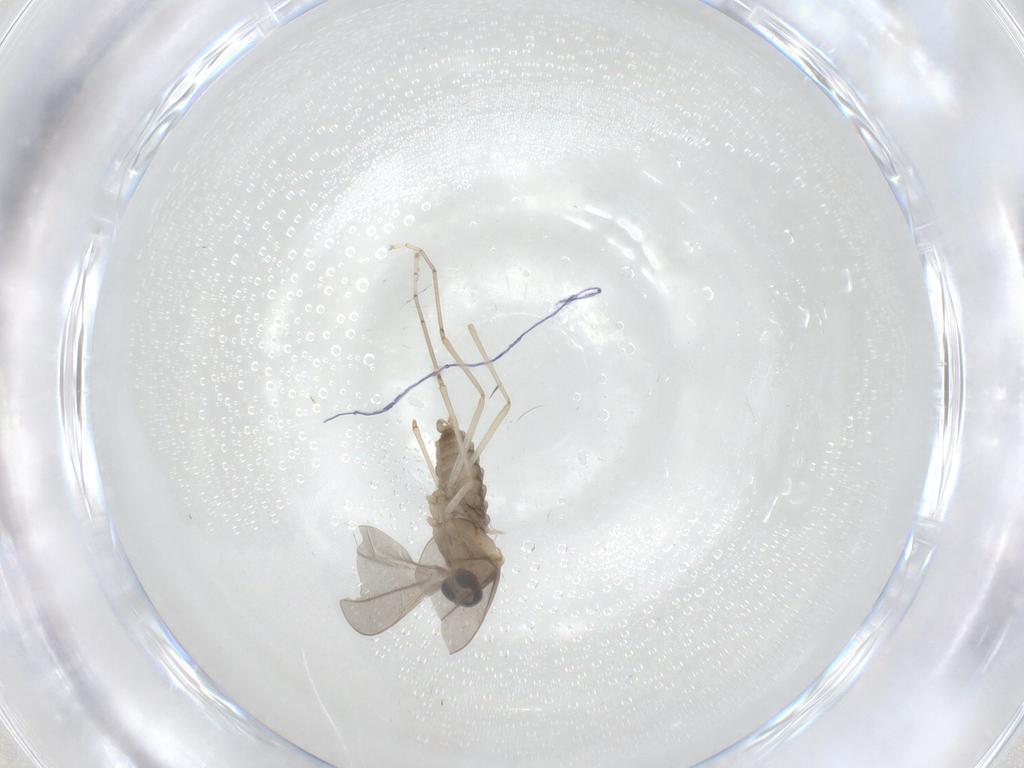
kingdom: Animalia
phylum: Arthropoda
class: Insecta
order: Diptera
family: Cecidomyiidae
